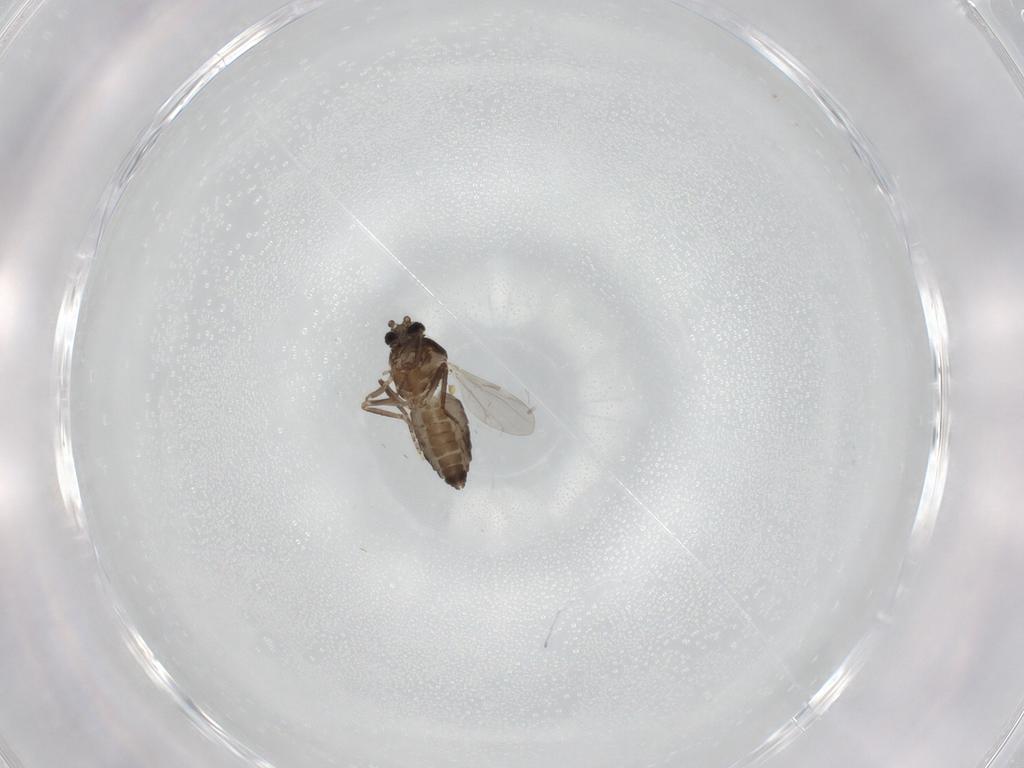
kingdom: Animalia
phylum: Arthropoda
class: Insecta
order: Diptera
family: Ceratopogonidae
